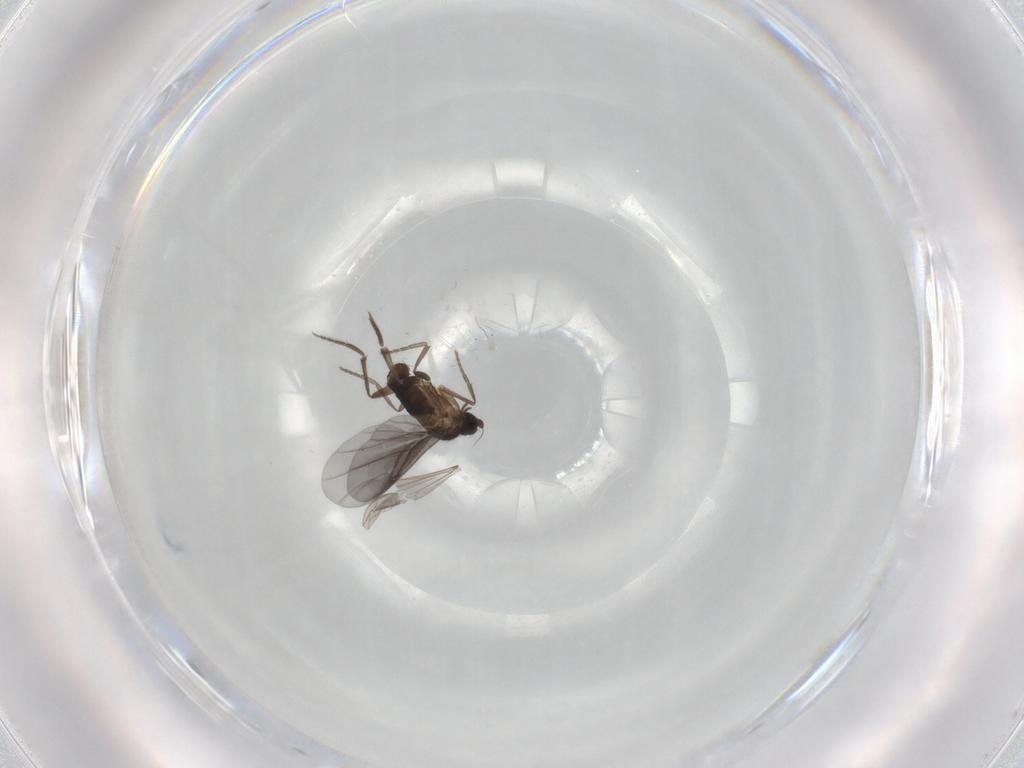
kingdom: Animalia
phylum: Arthropoda
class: Insecta
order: Diptera
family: Phoridae
